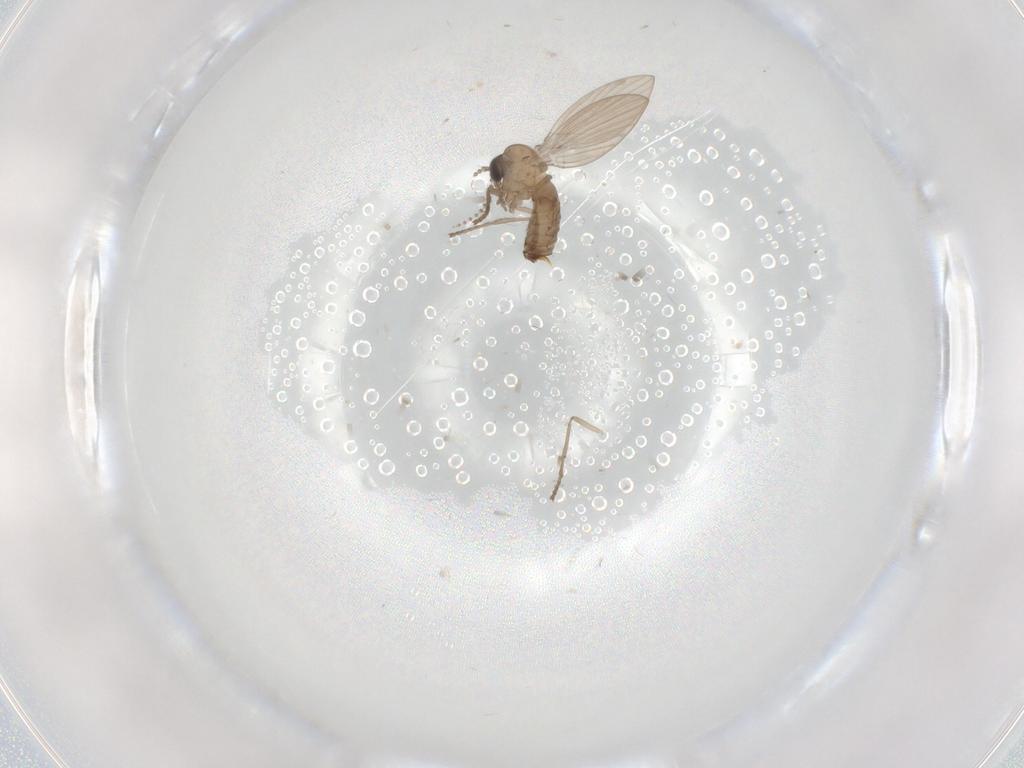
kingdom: Animalia
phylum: Arthropoda
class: Insecta
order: Diptera
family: Psychodidae
